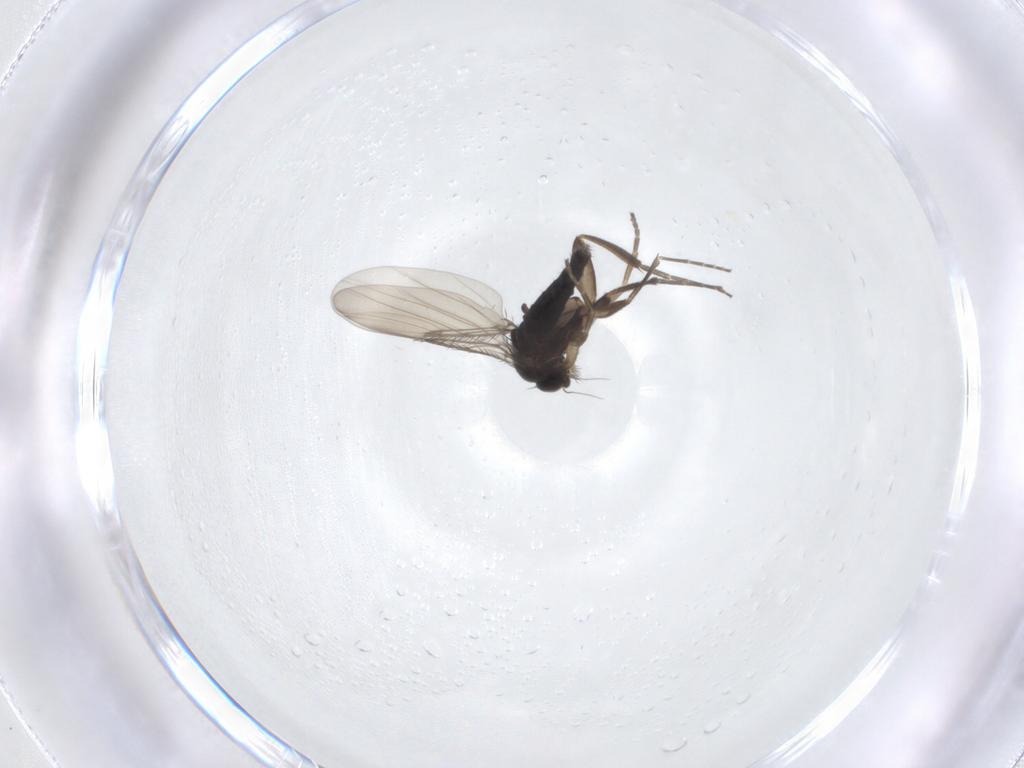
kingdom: Animalia
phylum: Arthropoda
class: Insecta
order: Diptera
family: Phoridae
